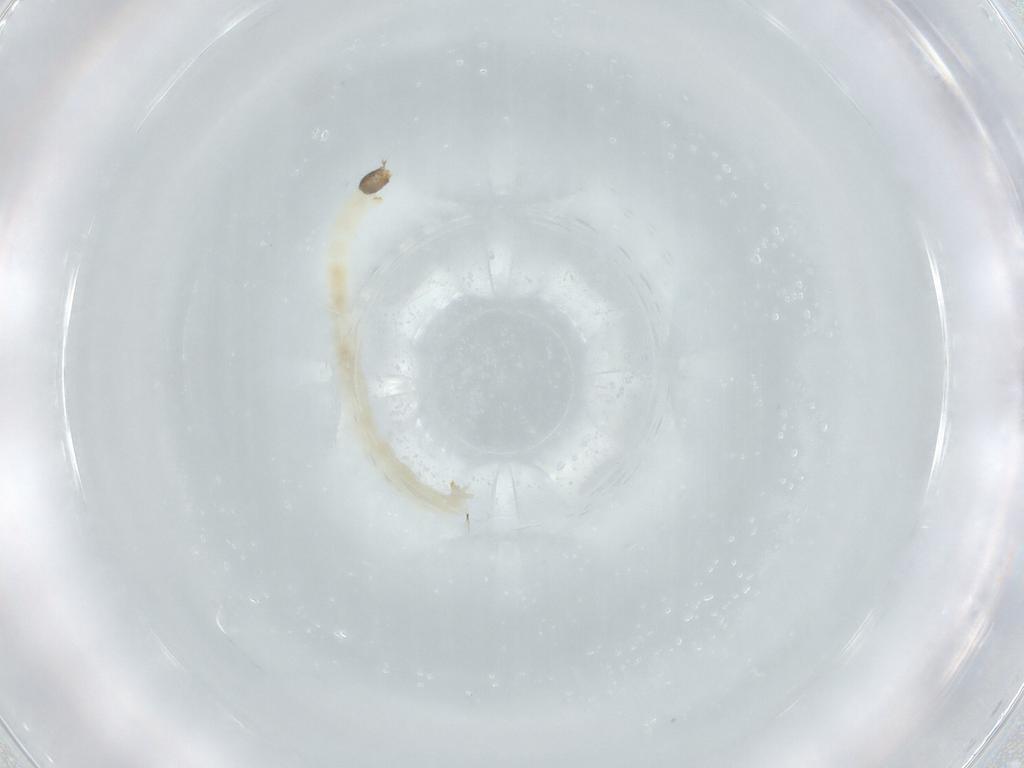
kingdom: Animalia
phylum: Arthropoda
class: Insecta
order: Diptera
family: Chironomidae
